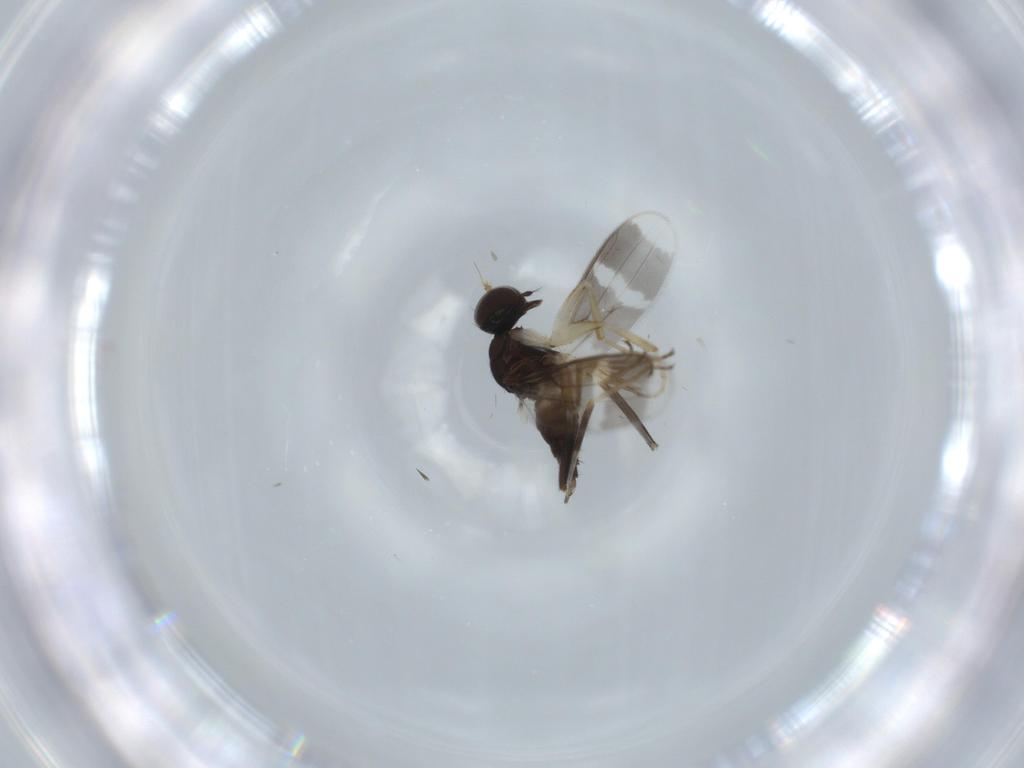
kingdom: Animalia
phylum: Arthropoda
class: Insecta
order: Diptera
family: Hybotidae
